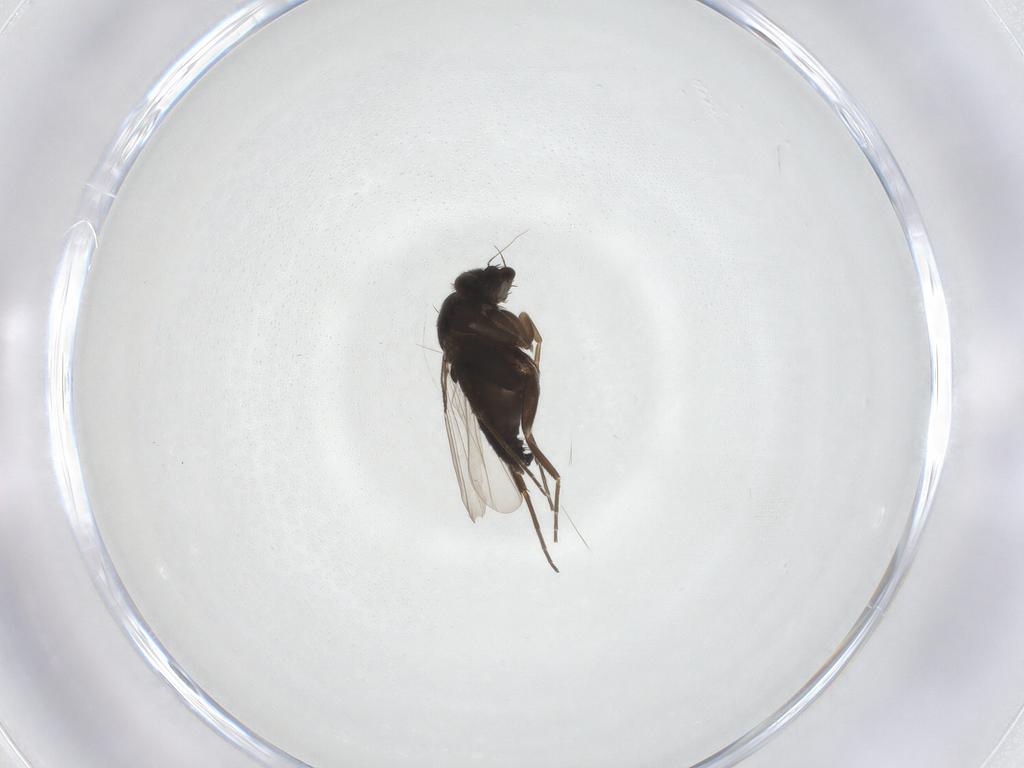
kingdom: Animalia
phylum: Arthropoda
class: Insecta
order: Diptera
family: Phoridae
